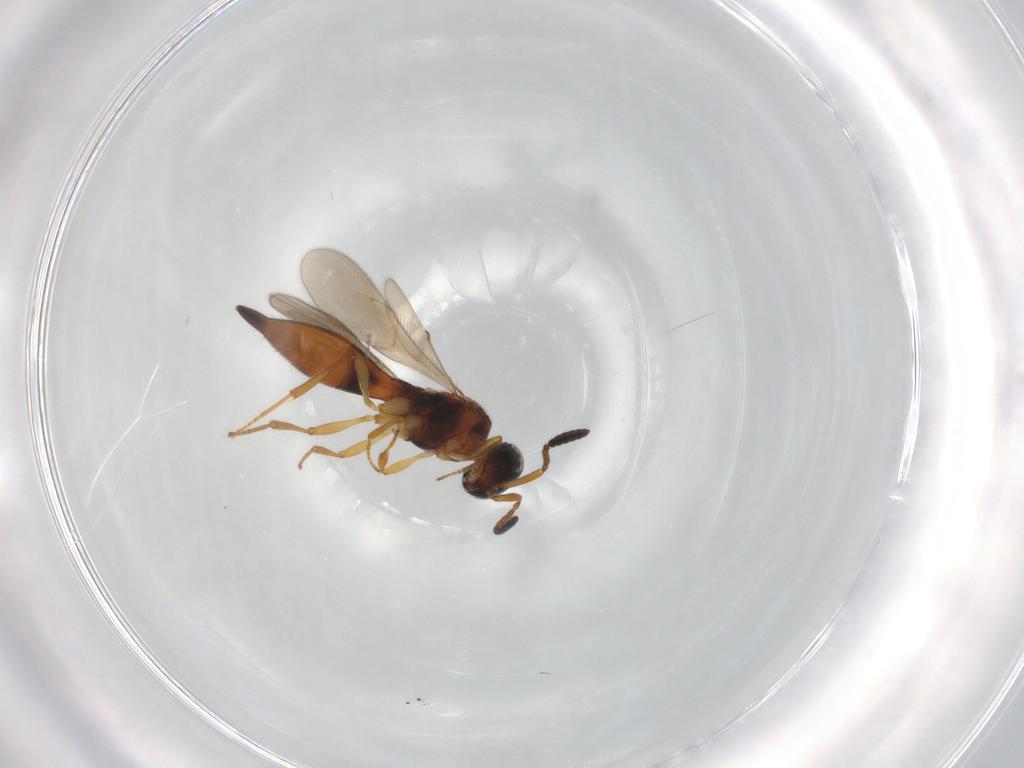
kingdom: Animalia
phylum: Arthropoda
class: Insecta
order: Hymenoptera
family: Scelionidae
